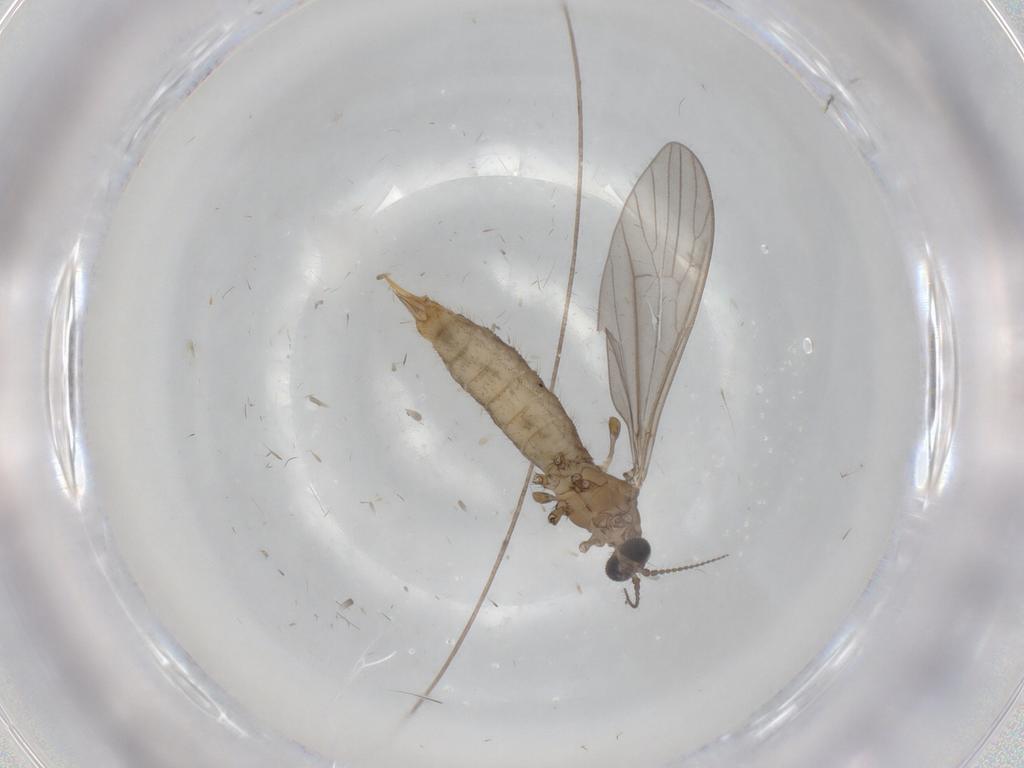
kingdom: Animalia
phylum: Arthropoda
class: Insecta
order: Diptera
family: Limoniidae
